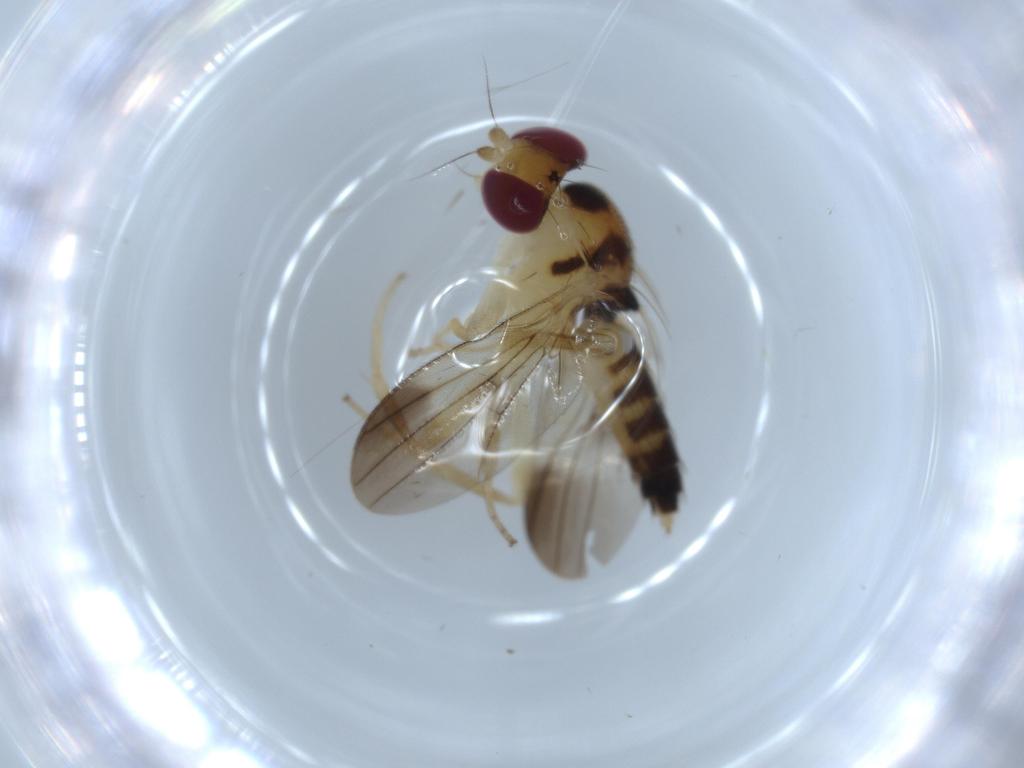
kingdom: Animalia
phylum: Arthropoda
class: Insecta
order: Diptera
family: Clusiidae
